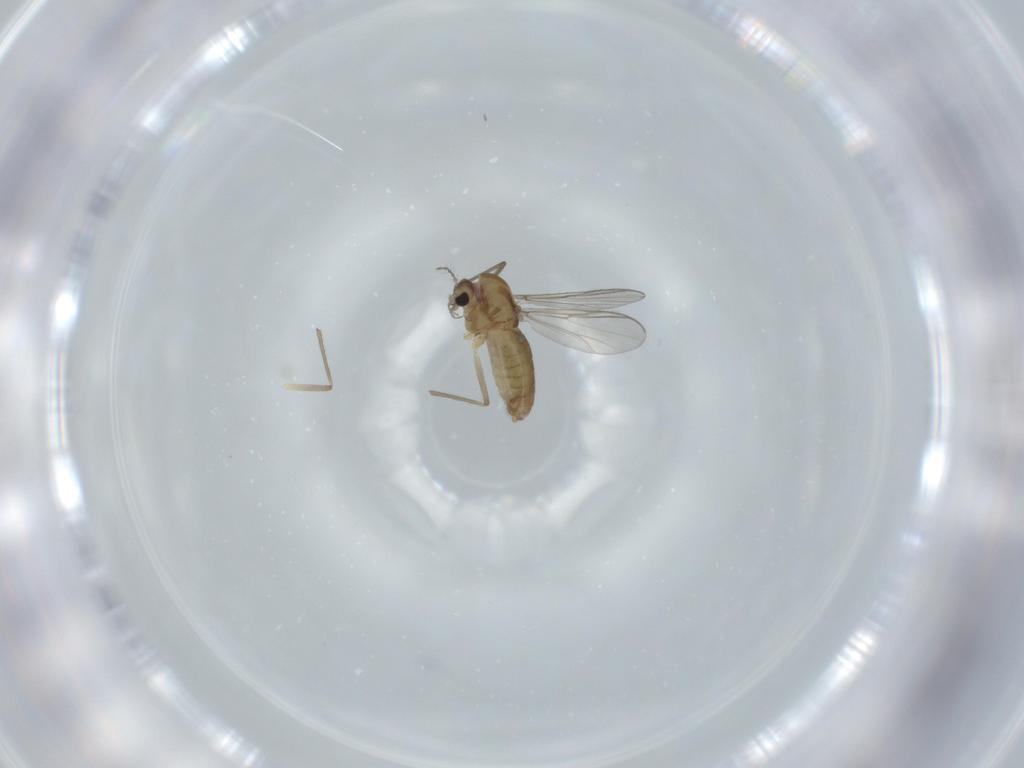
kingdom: Animalia
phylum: Arthropoda
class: Insecta
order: Diptera
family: Chironomidae
